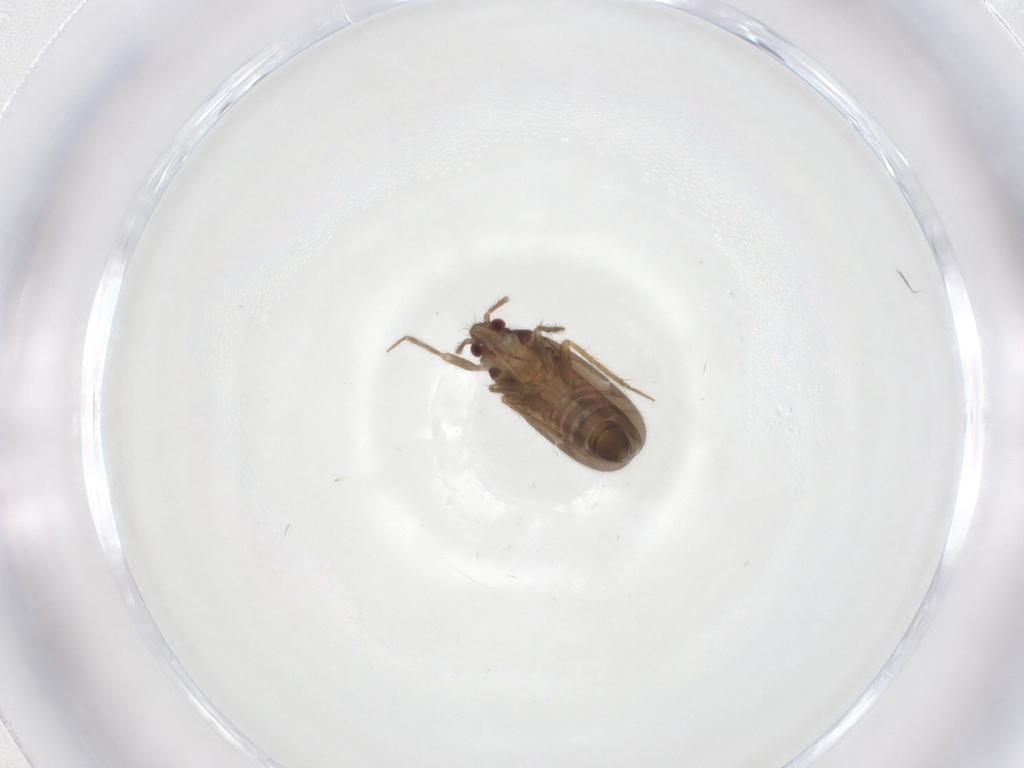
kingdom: Animalia
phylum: Arthropoda
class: Insecta
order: Hemiptera
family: Ceratocombidae
